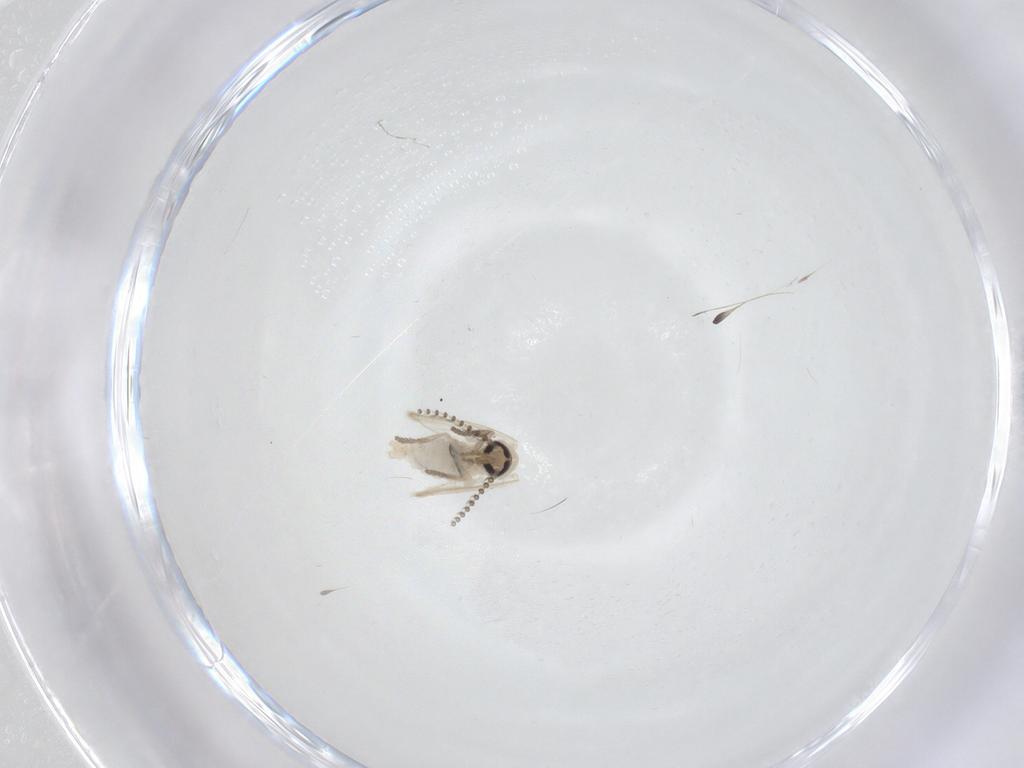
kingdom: Animalia
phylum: Arthropoda
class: Insecta
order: Diptera
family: Psychodidae
